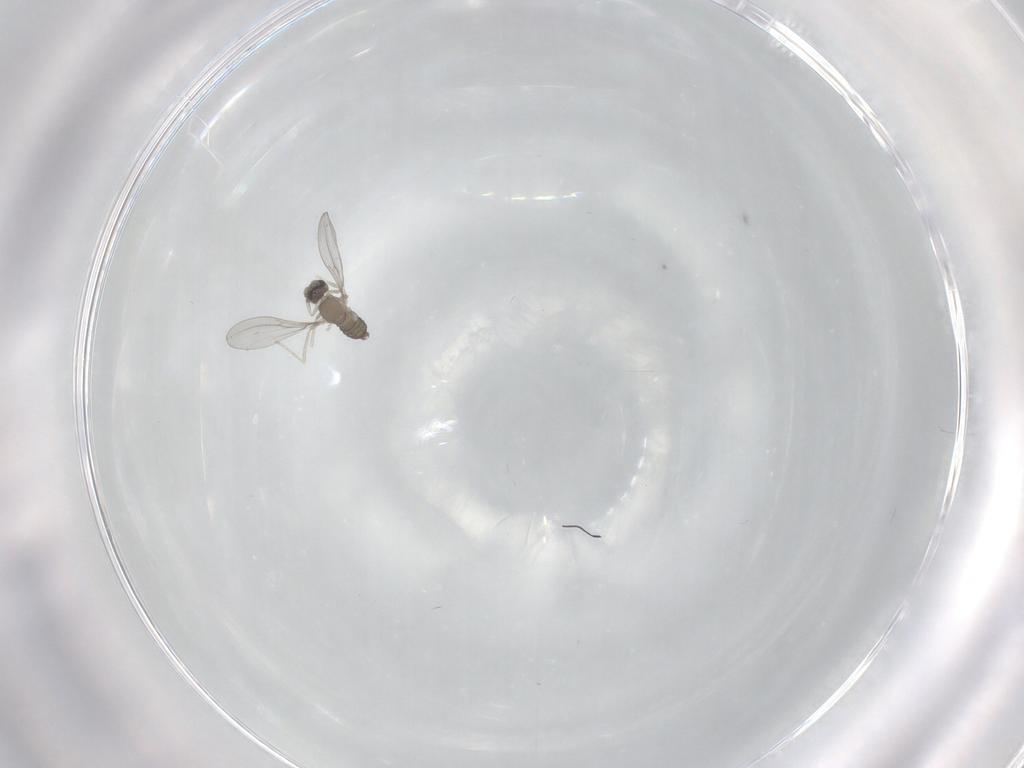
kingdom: Animalia
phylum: Arthropoda
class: Insecta
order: Diptera
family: Cecidomyiidae
